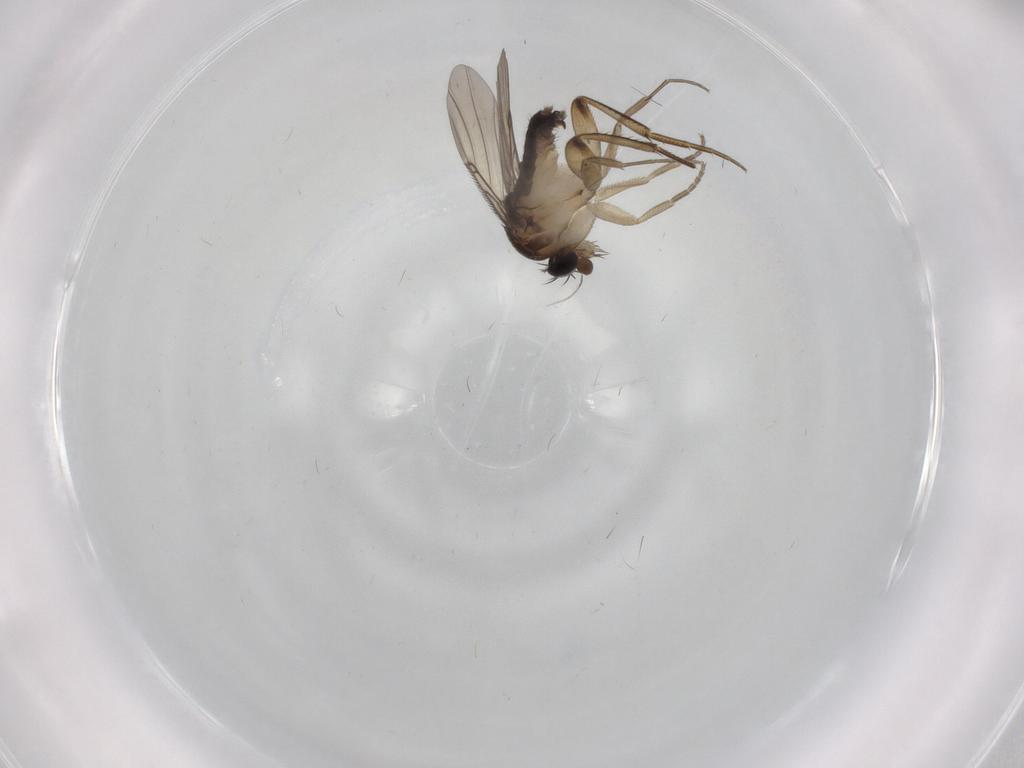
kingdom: Animalia
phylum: Arthropoda
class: Insecta
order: Diptera
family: Phoridae
